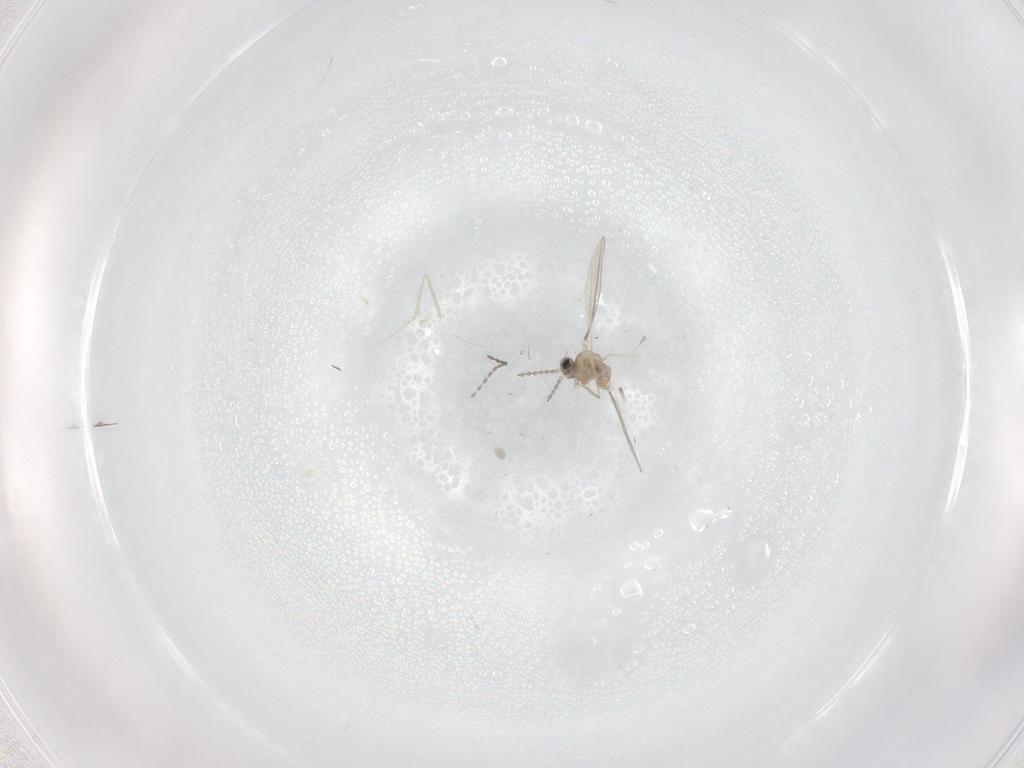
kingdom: Animalia
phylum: Arthropoda
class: Insecta
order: Diptera
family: Cecidomyiidae
